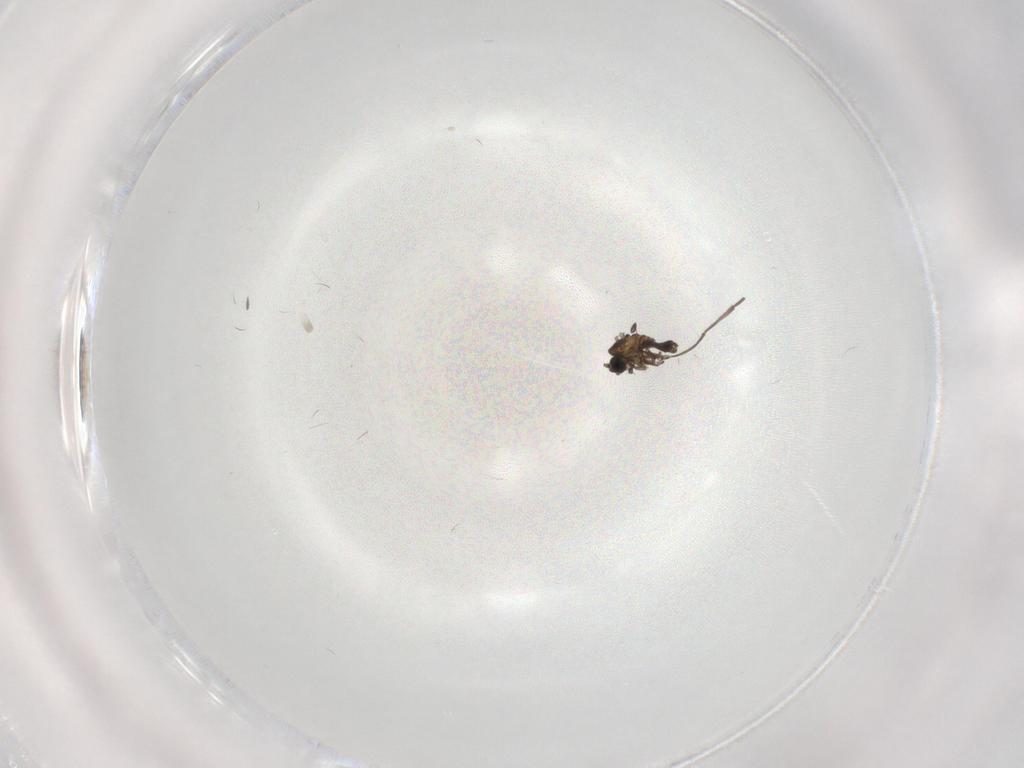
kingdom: Animalia
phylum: Arthropoda
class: Insecta
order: Diptera
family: Sciaridae
